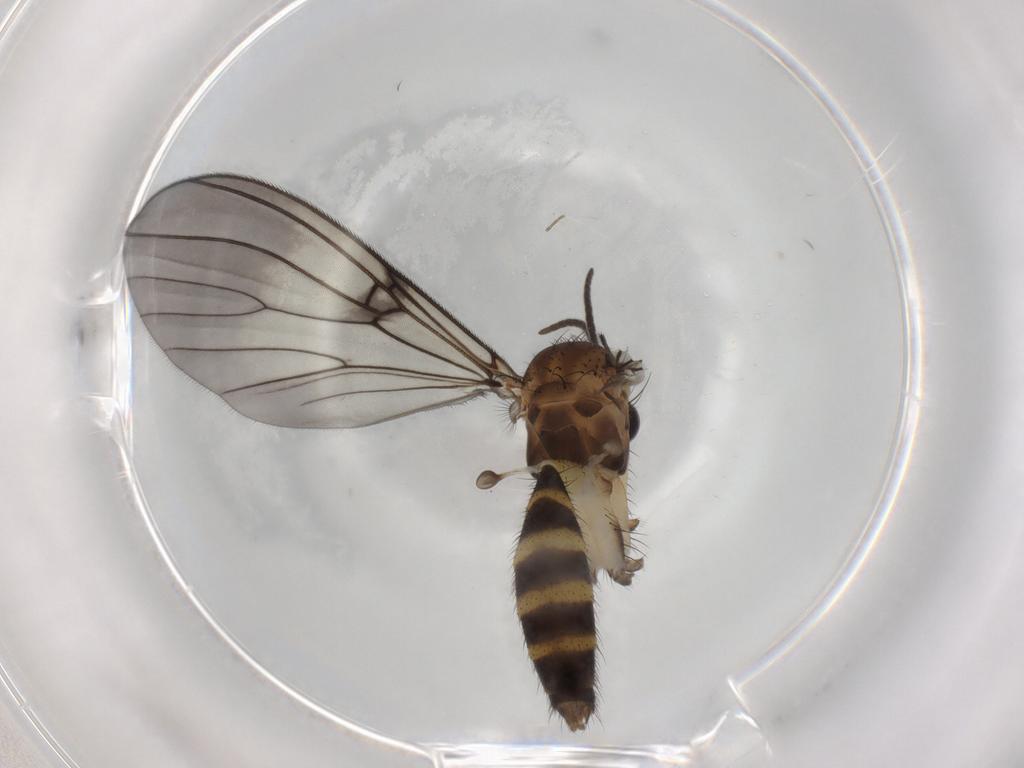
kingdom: Animalia
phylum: Arthropoda
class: Insecta
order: Diptera
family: Mycetophilidae
